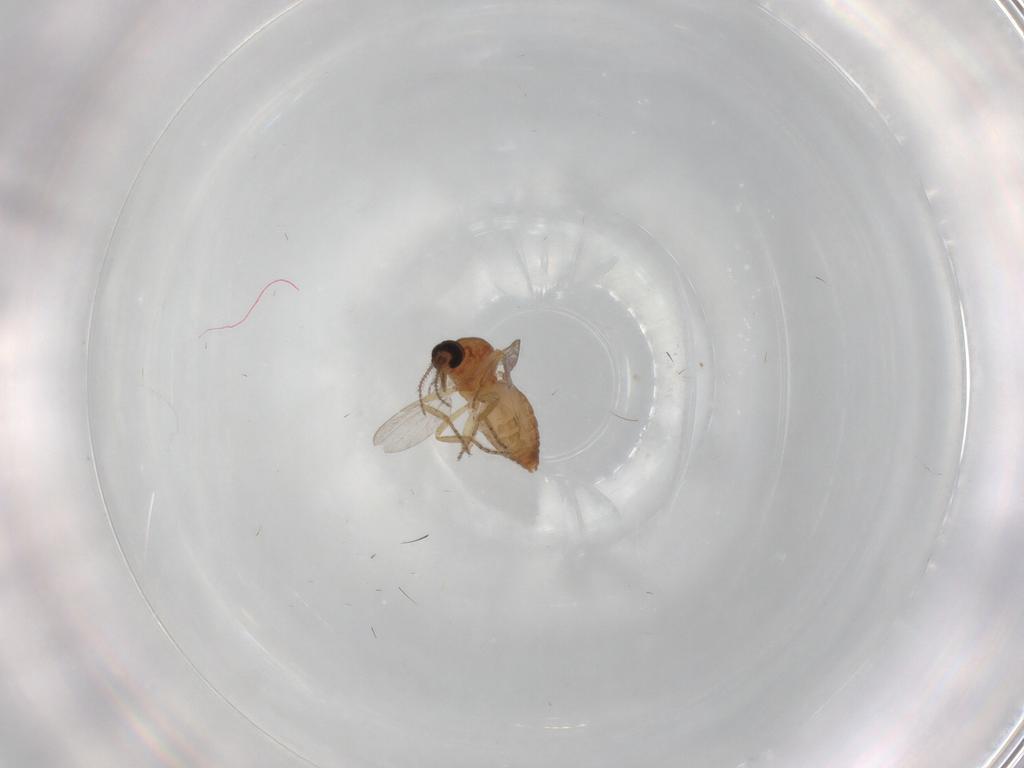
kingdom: Animalia
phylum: Arthropoda
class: Insecta
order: Diptera
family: Ceratopogonidae
